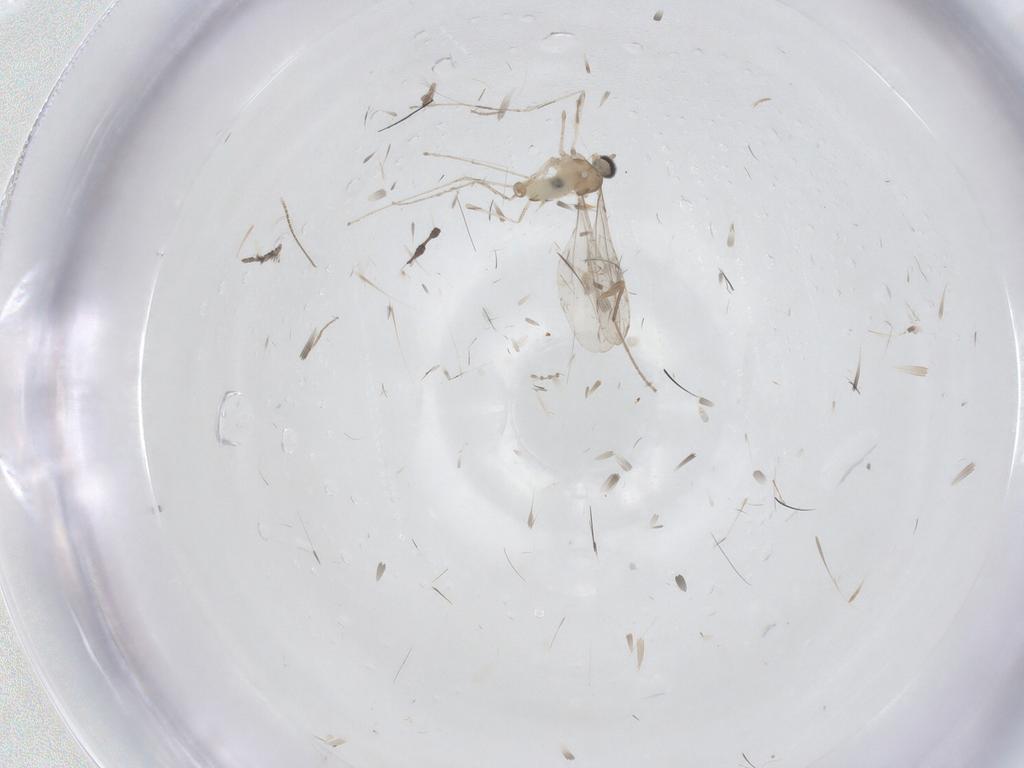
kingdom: Animalia
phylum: Arthropoda
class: Insecta
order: Diptera
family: Cecidomyiidae
